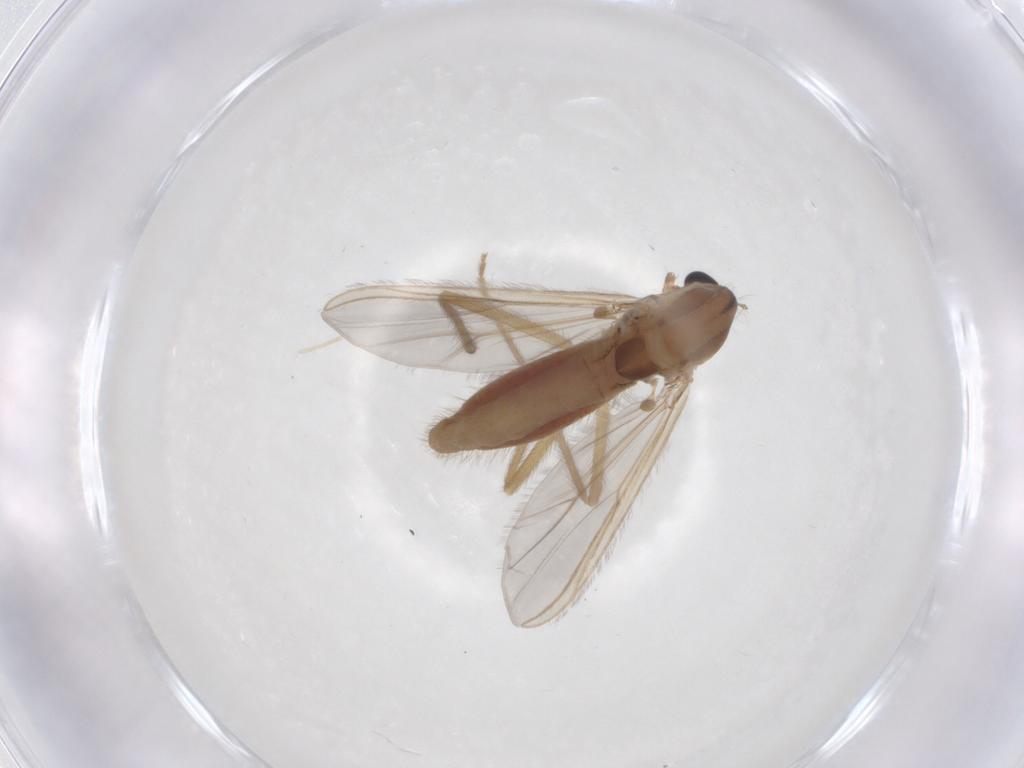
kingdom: Animalia
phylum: Arthropoda
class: Insecta
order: Diptera
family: Chironomidae
